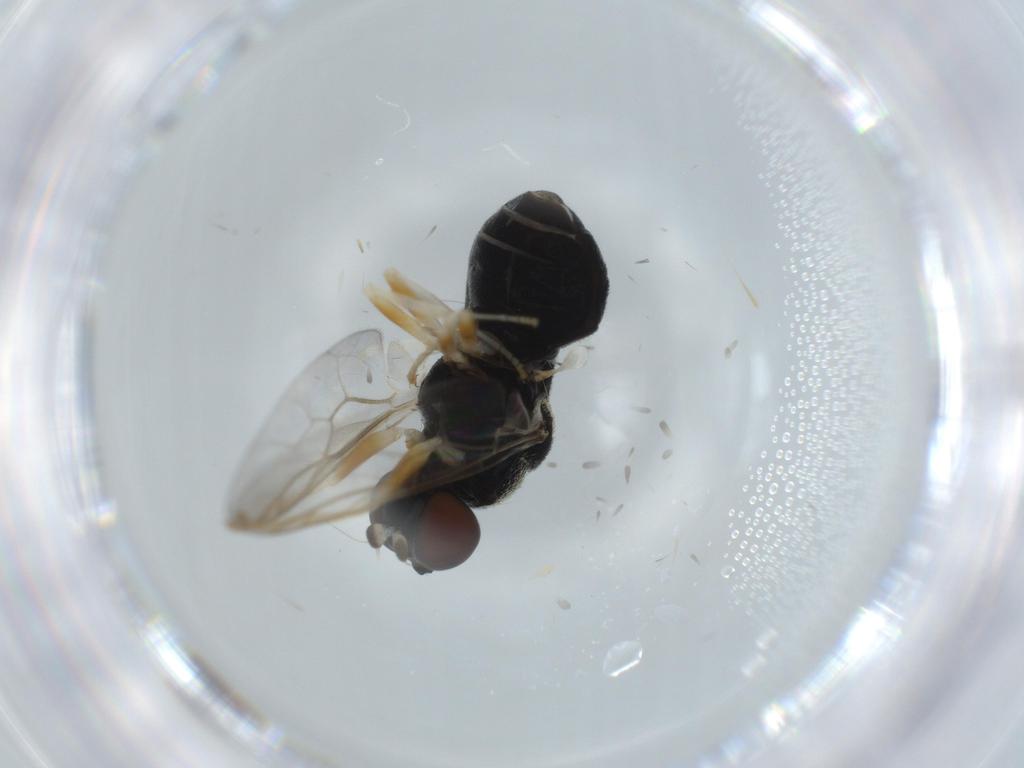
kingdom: Animalia
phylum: Arthropoda
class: Insecta
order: Diptera
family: Stratiomyidae
